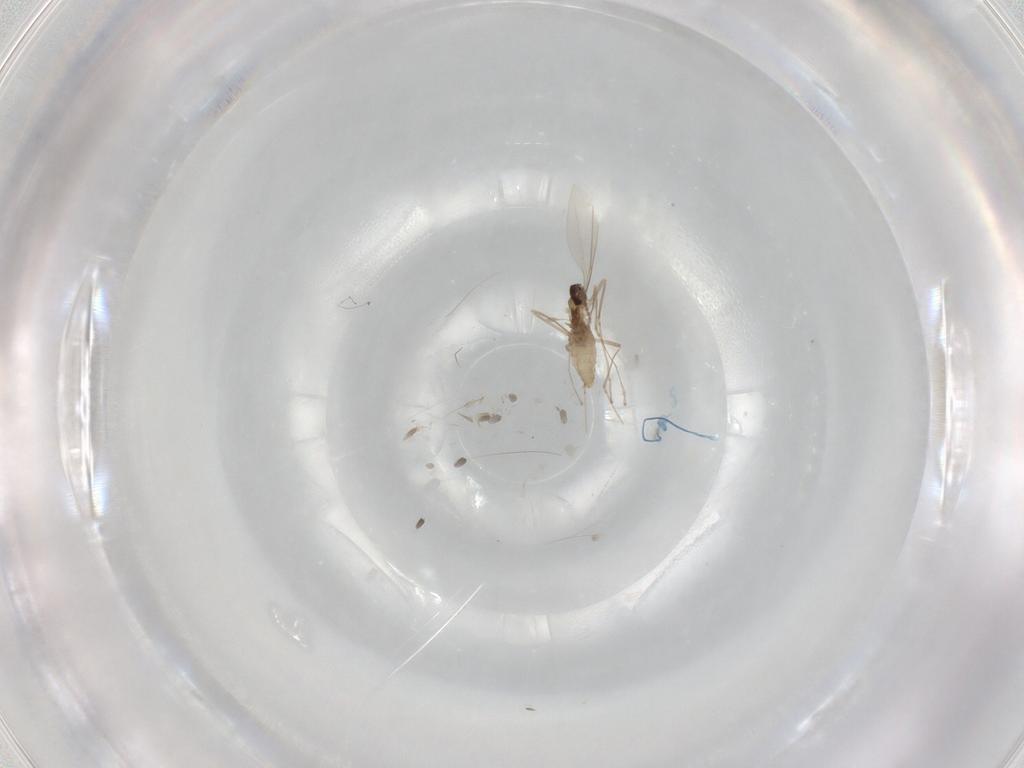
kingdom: Animalia
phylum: Arthropoda
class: Insecta
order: Diptera
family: Cecidomyiidae
